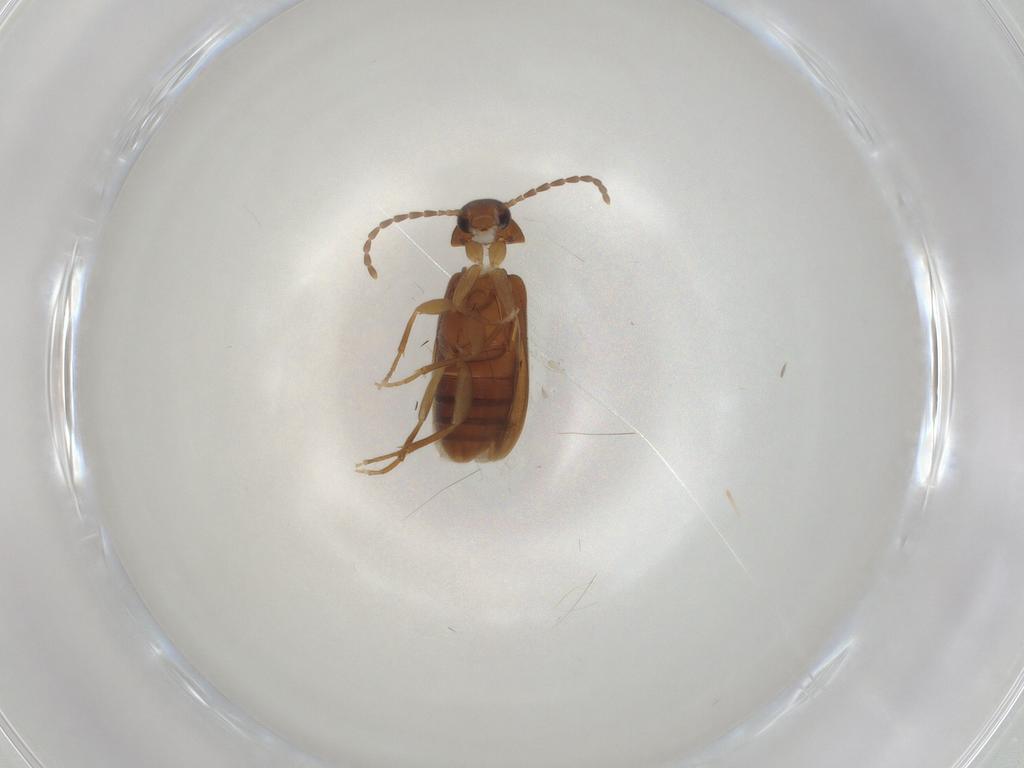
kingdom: Animalia
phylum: Arthropoda
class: Insecta
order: Coleoptera
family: Scraptiidae
